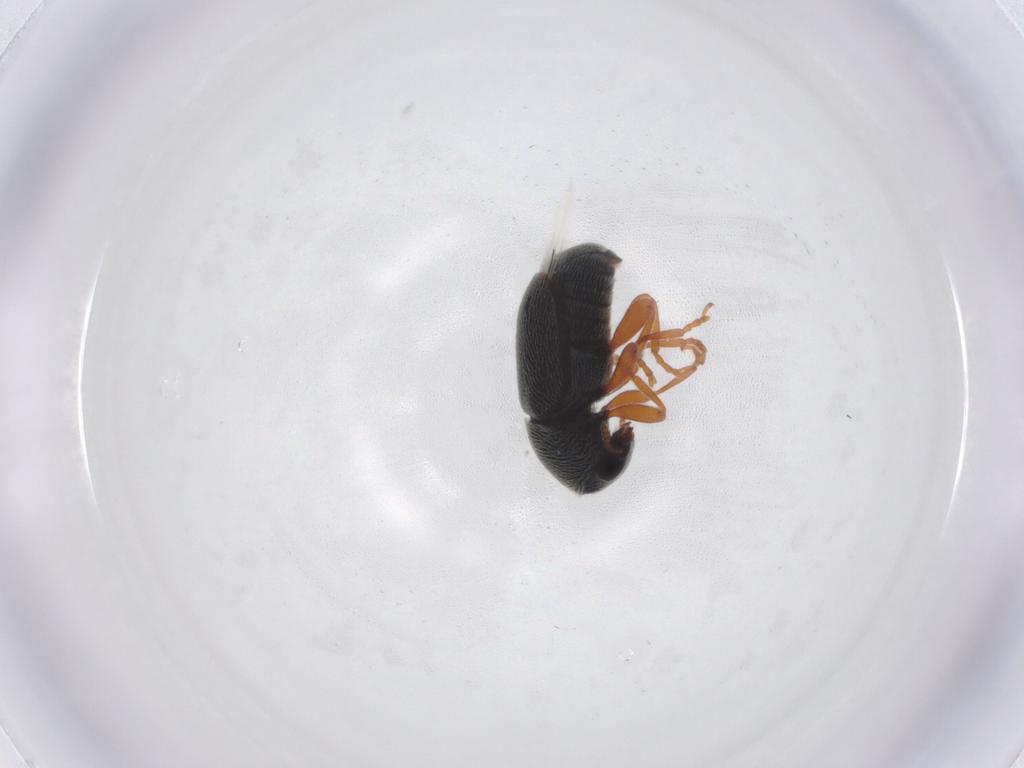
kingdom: Animalia
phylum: Arthropoda
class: Insecta
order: Coleoptera
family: Anthribidae
